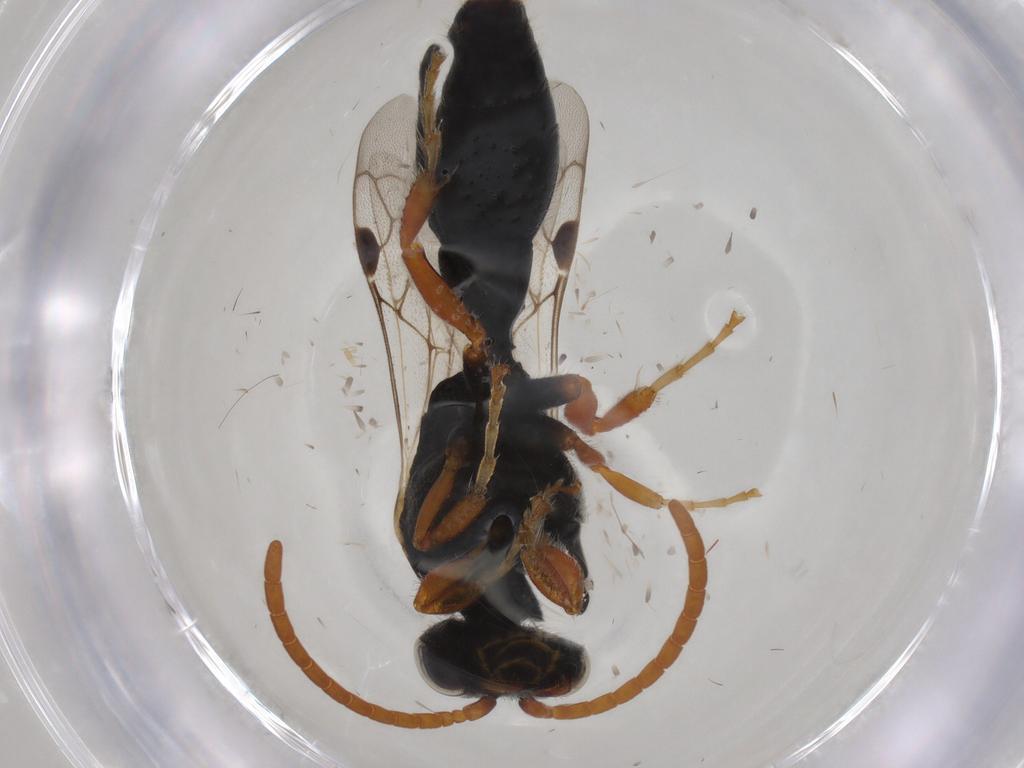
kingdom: Animalia
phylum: Arthropoda
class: Insecta
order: Hymenoptera
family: Tiphiidae
